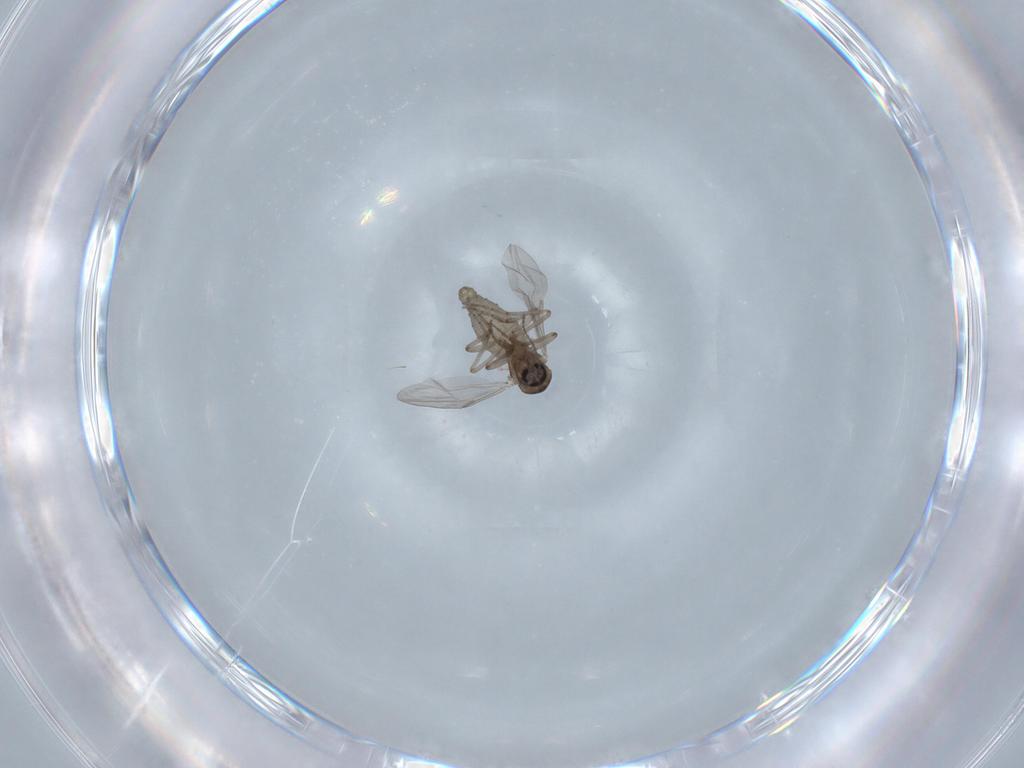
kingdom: Animalia
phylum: Arthropoda
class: Insecta
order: Diptera
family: Ceratopogonidae
